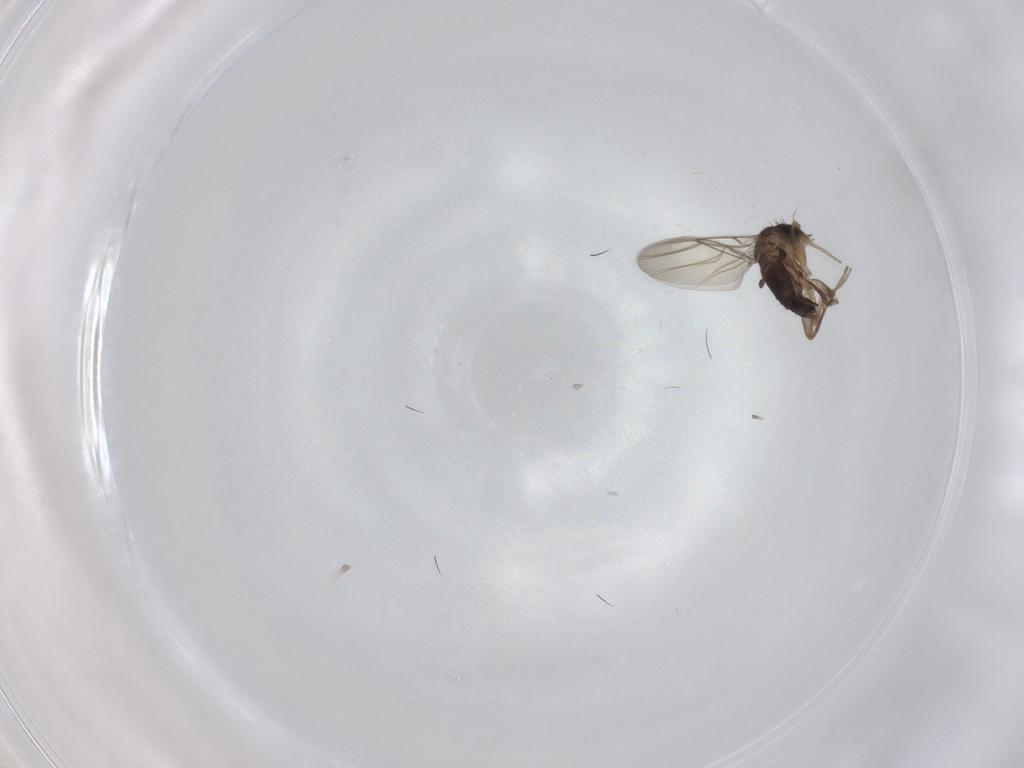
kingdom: Animalia
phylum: Arthropoda
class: Insecta
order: Diptera
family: Phoridae
